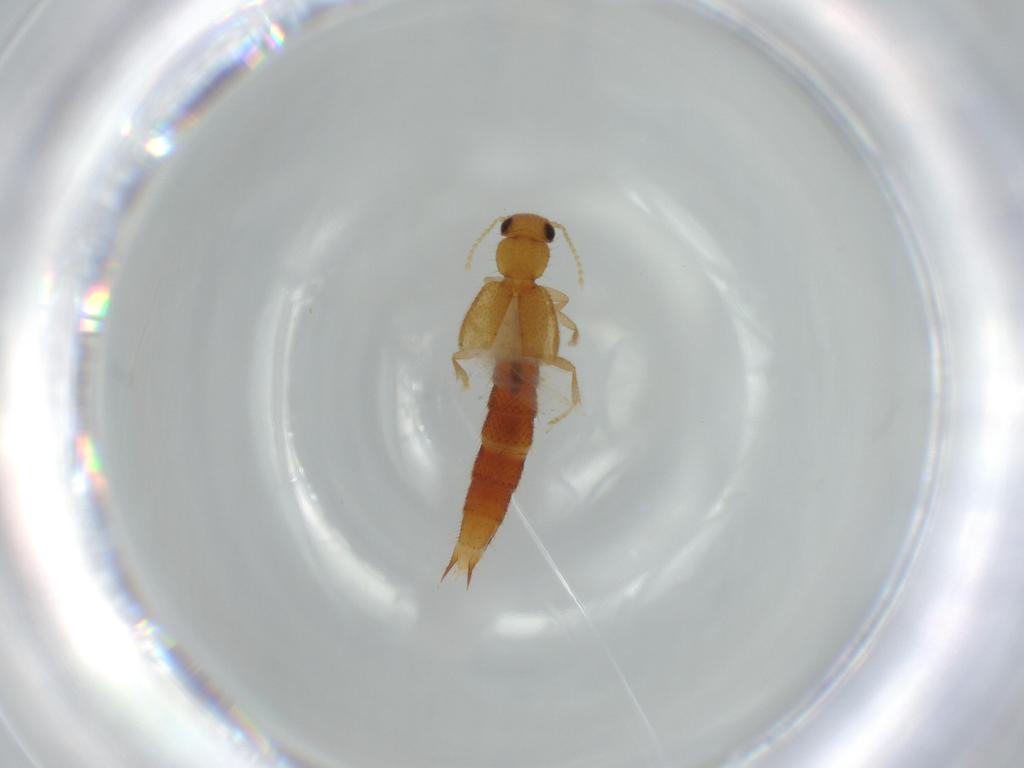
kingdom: Animalia
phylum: Arthropoda
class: Insecta
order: Coleoptera
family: Staphylinidae
